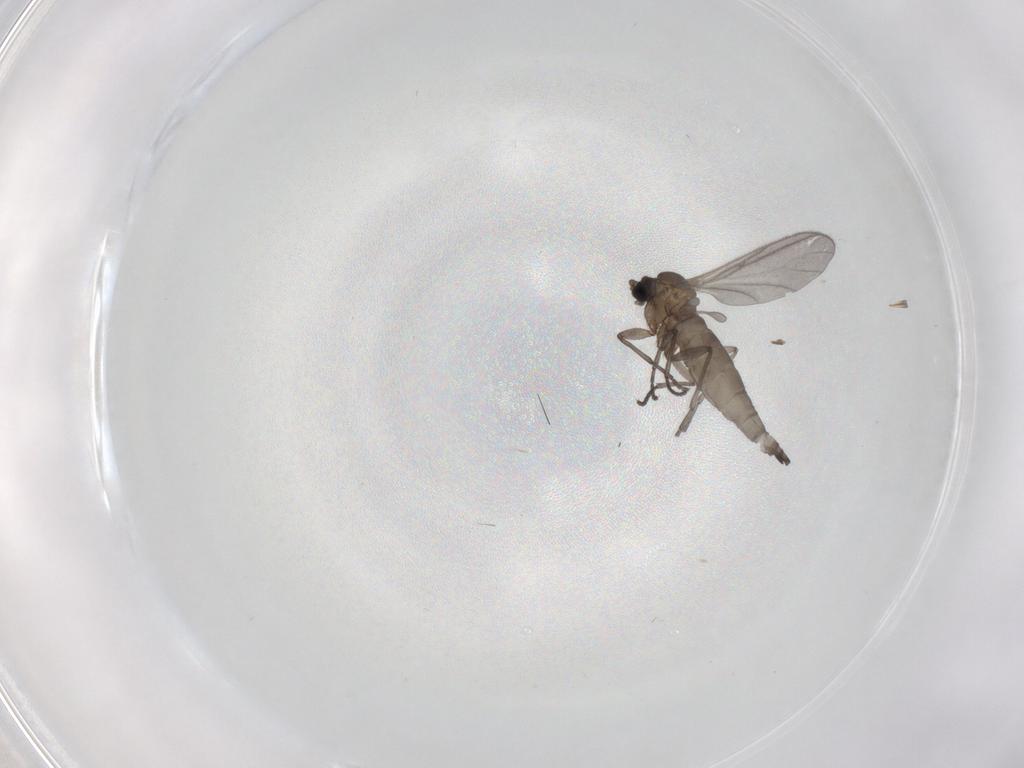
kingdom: Animalia
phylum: Arthropoda
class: Insecta
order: Diptera
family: Sciaridae
